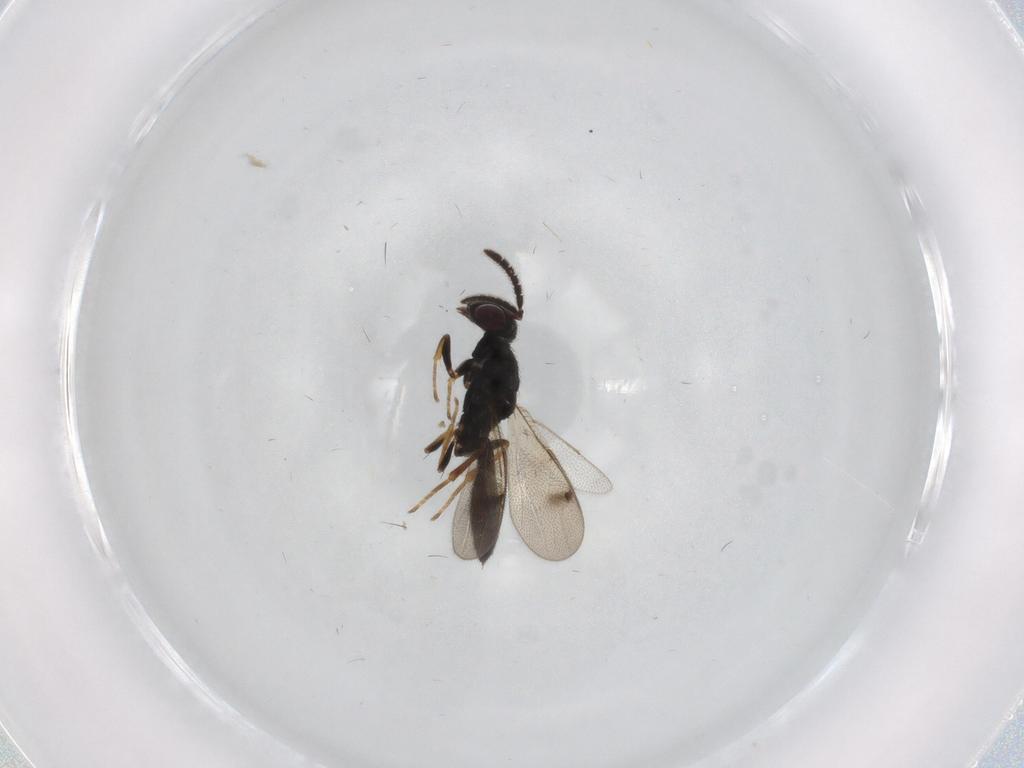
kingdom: Animalia
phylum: Arthropoda
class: Insecta
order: Hymenoptera
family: Pteromalidae
